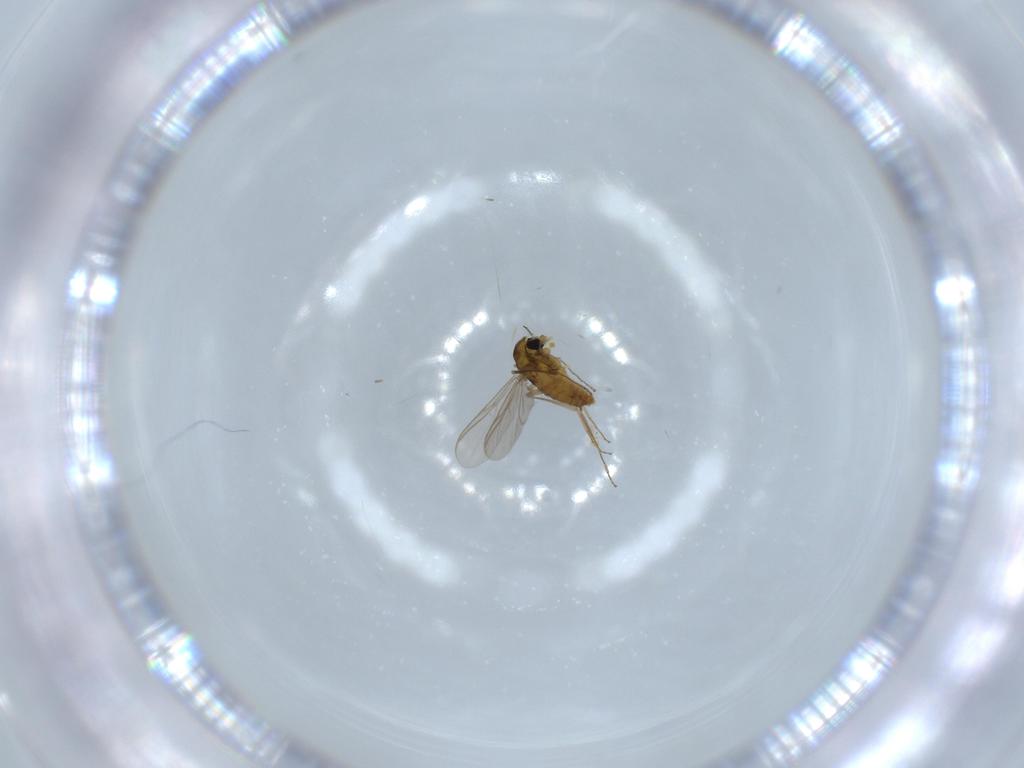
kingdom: Animalia
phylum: Arthropoda
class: Insecta
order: Diptera
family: Chironomidae
